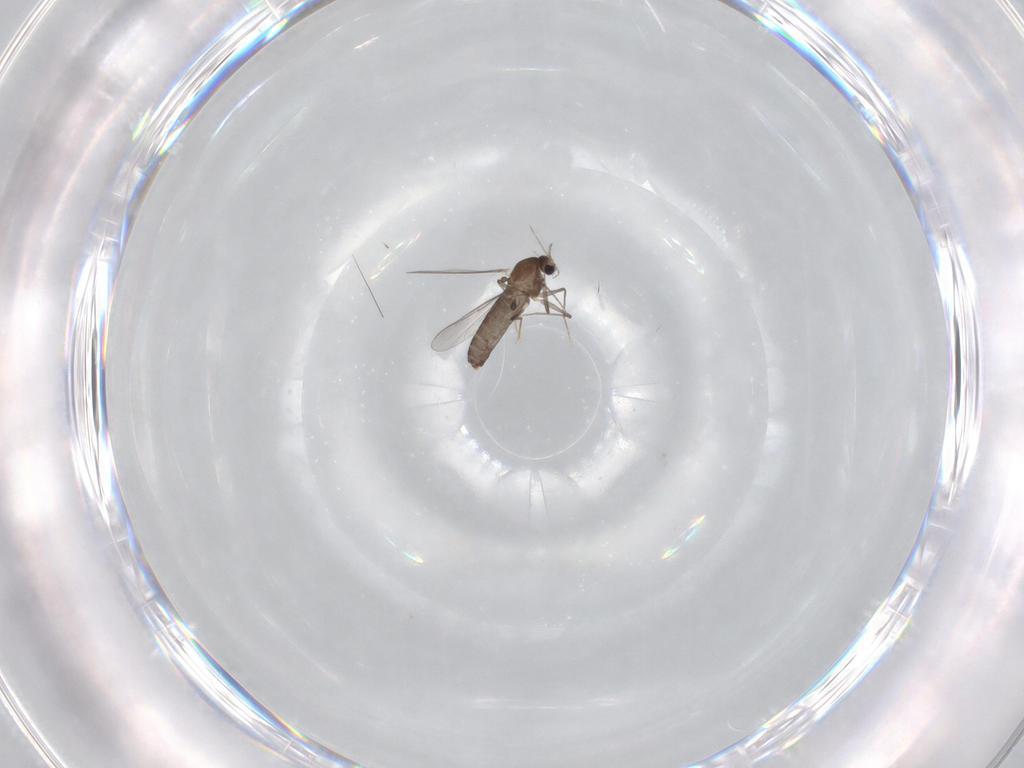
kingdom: Animalia
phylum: Arthropoda
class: Insecta
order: Diptera
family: Chironomidae
